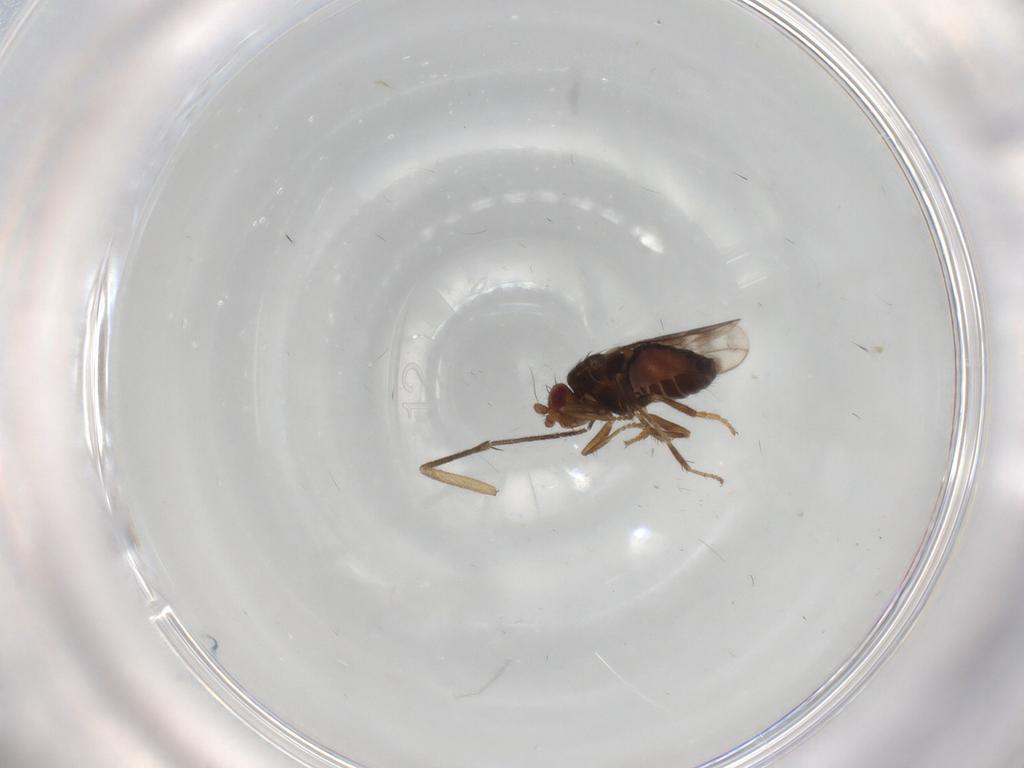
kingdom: Animalia
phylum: Arthropoda
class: Insecta
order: Diptera
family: Sphaeroceridae
